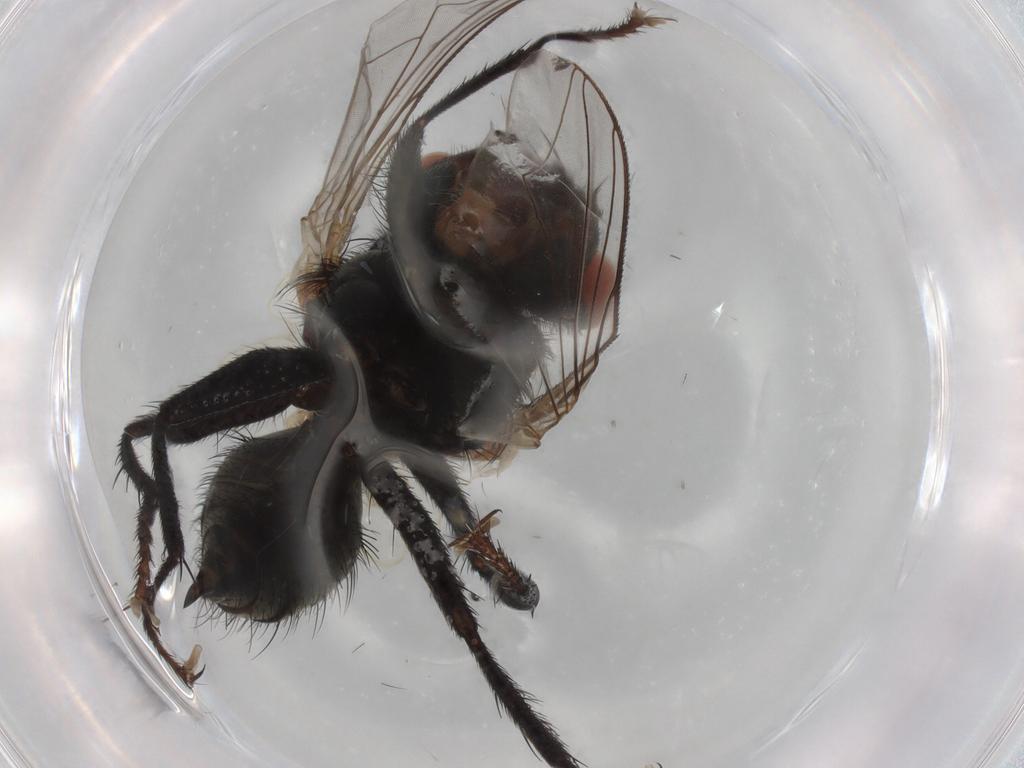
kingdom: Animalia
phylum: Arthropoda
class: Insecta
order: Diptera
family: Sarcophagidae
